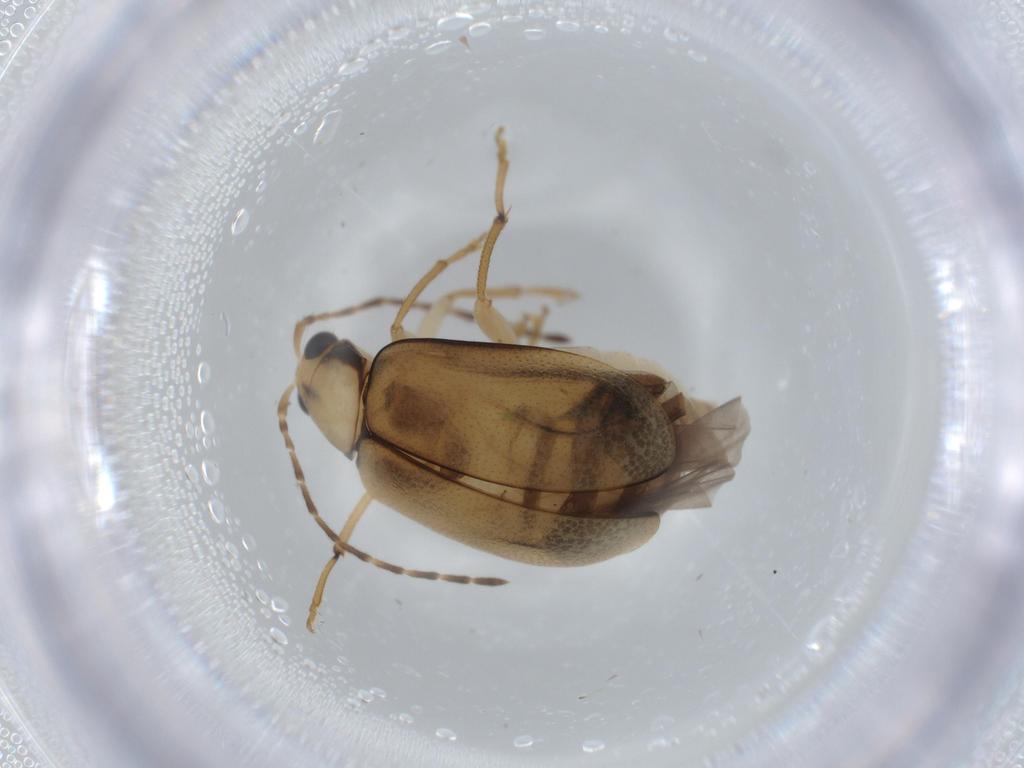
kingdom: Animalia
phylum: Arthropoda
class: Insecta
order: Coleoptera
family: Chrysomelidae
